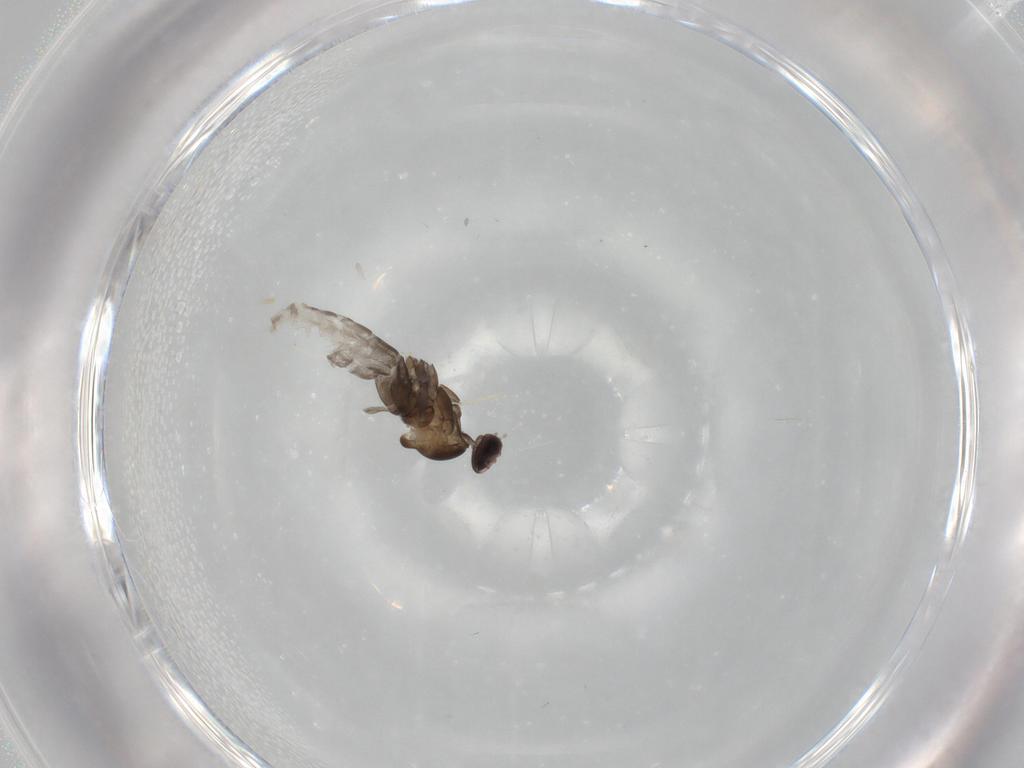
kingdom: Animalia
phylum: Arthropoda
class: Insecta
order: Diptera
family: Cecidomyiidae
